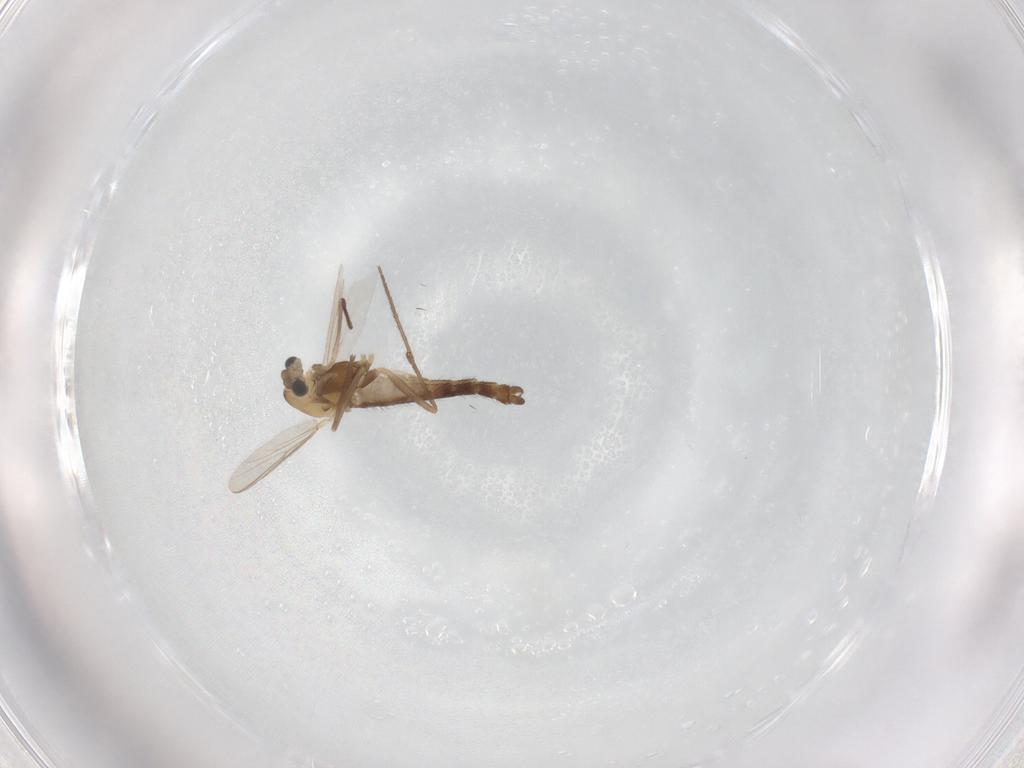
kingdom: Animalia
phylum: Arthropoda
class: Insecta
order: Diptera
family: Chironomidae
